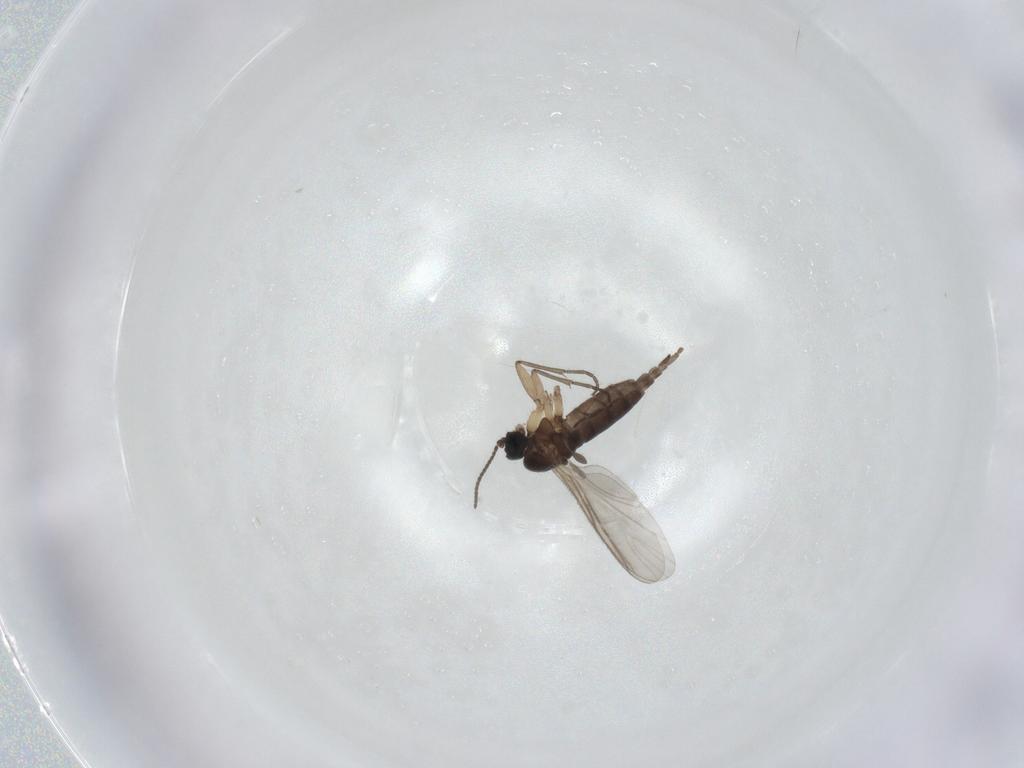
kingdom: Animalia
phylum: Arthropoda
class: Insecta
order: Diptera
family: Sciaridae
